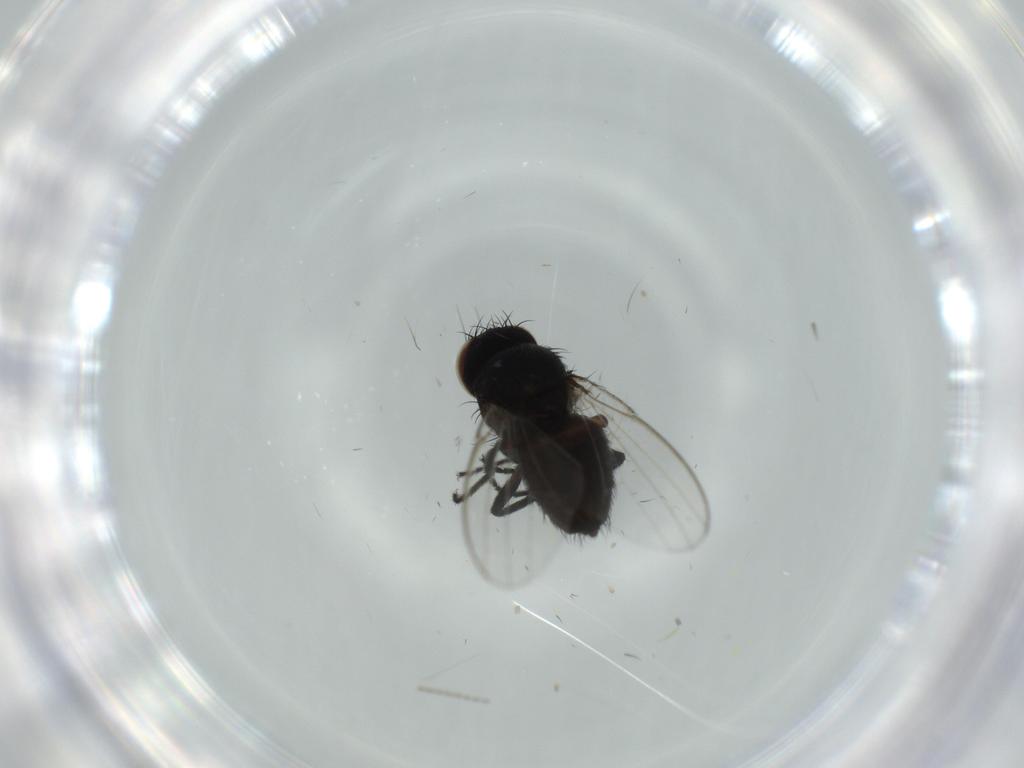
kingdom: Animalia
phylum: Arthropoda
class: Insecta
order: Diptera
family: Milichiidae
